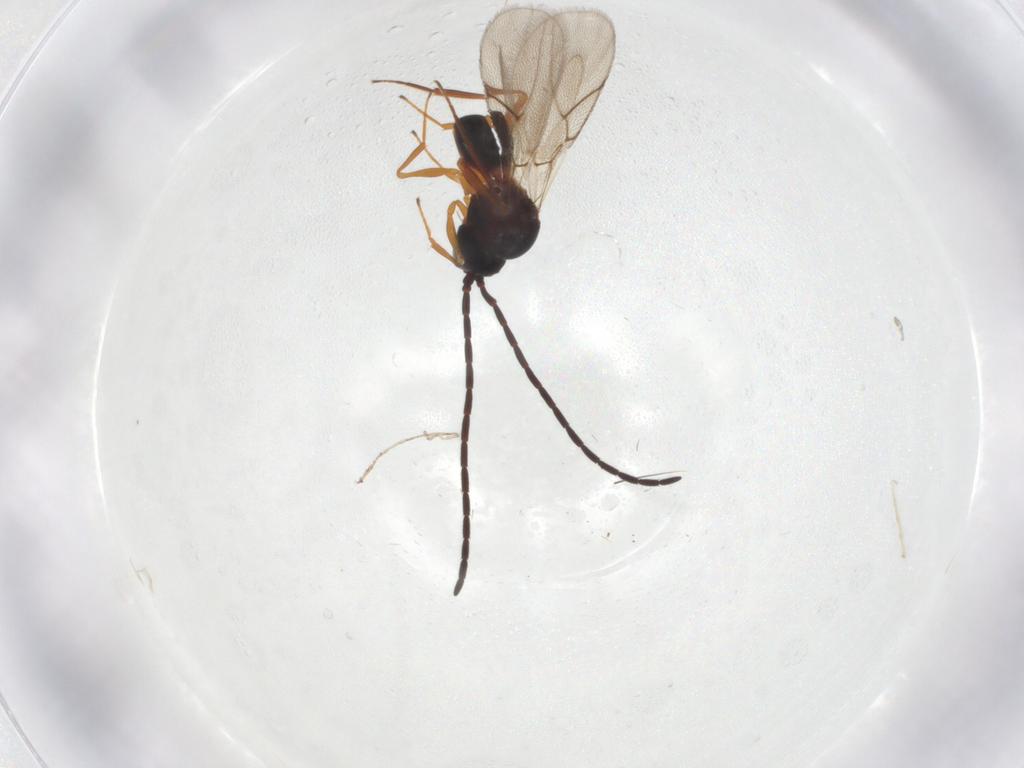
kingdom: Animalia
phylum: Arthropoda
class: Insecta
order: Hymenoptera
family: Figitidae
